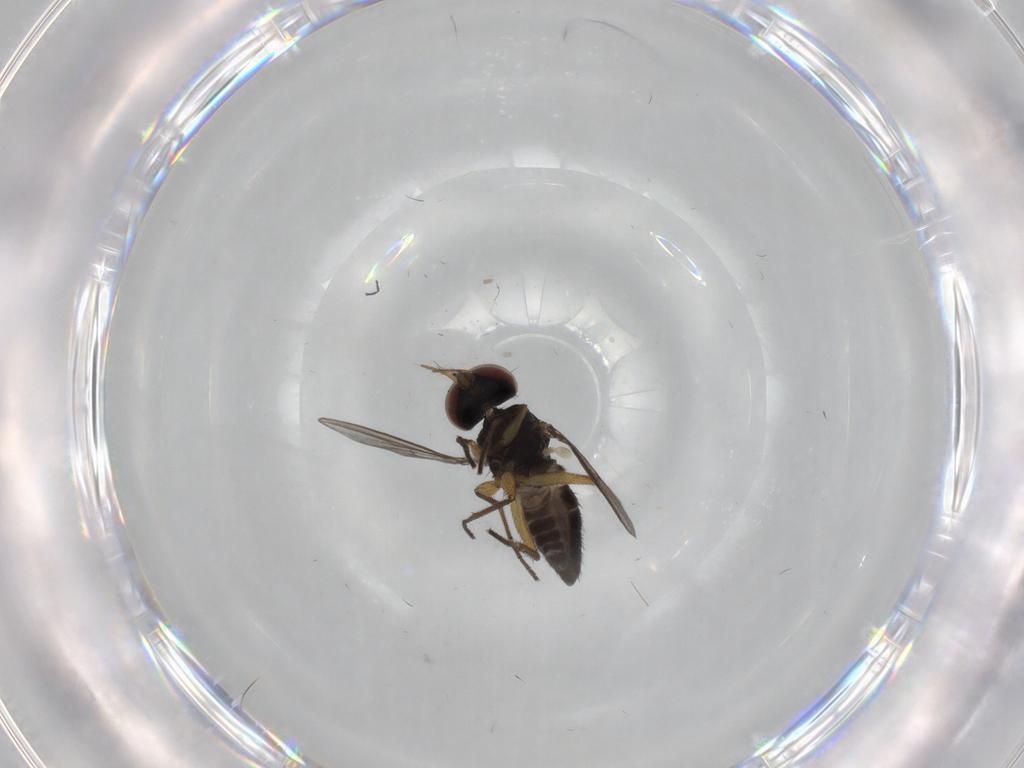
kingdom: Animalia
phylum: Arthropoda
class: Insecta
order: Diptera
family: Dolichopodidae
